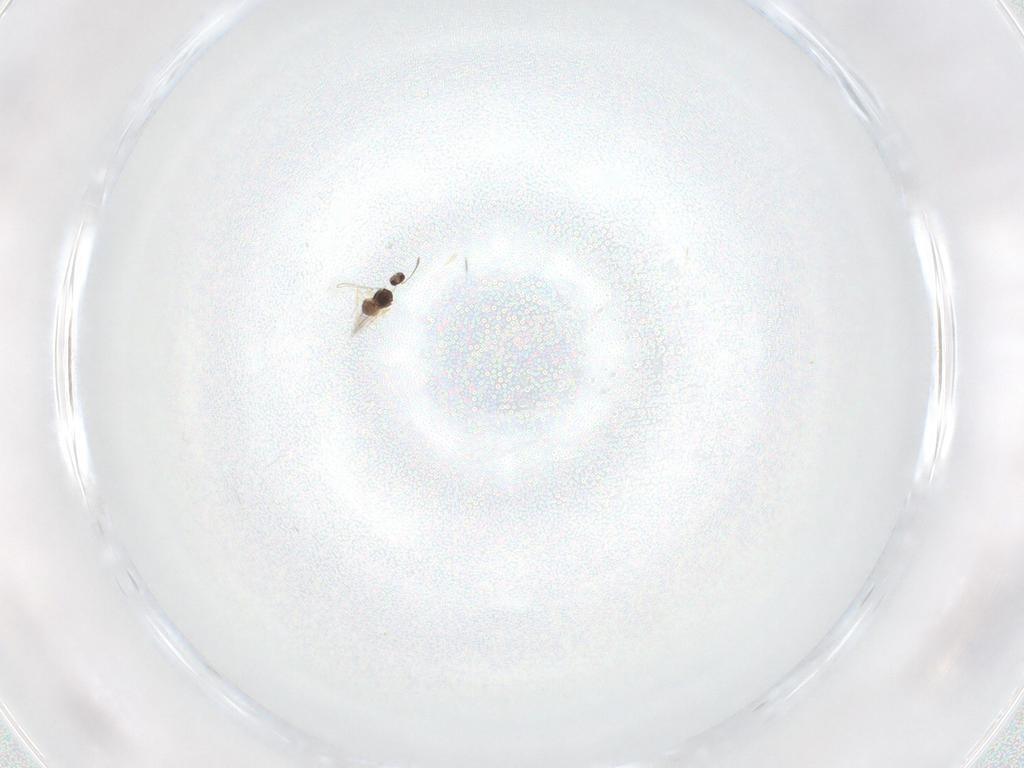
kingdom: Animalia
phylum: Arthropoda
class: Insecta
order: Hymenoptera
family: Mymaridae
